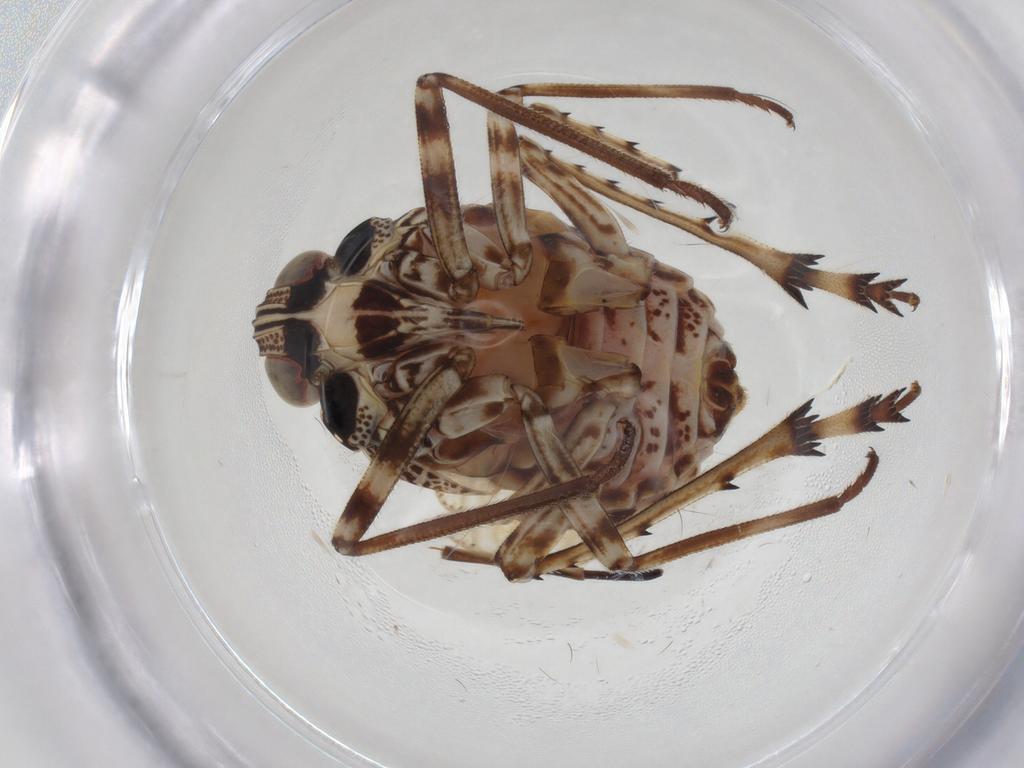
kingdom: Animalia
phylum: Arthropoda
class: Insecta
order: Hemiptera
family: Dictyopharidae
